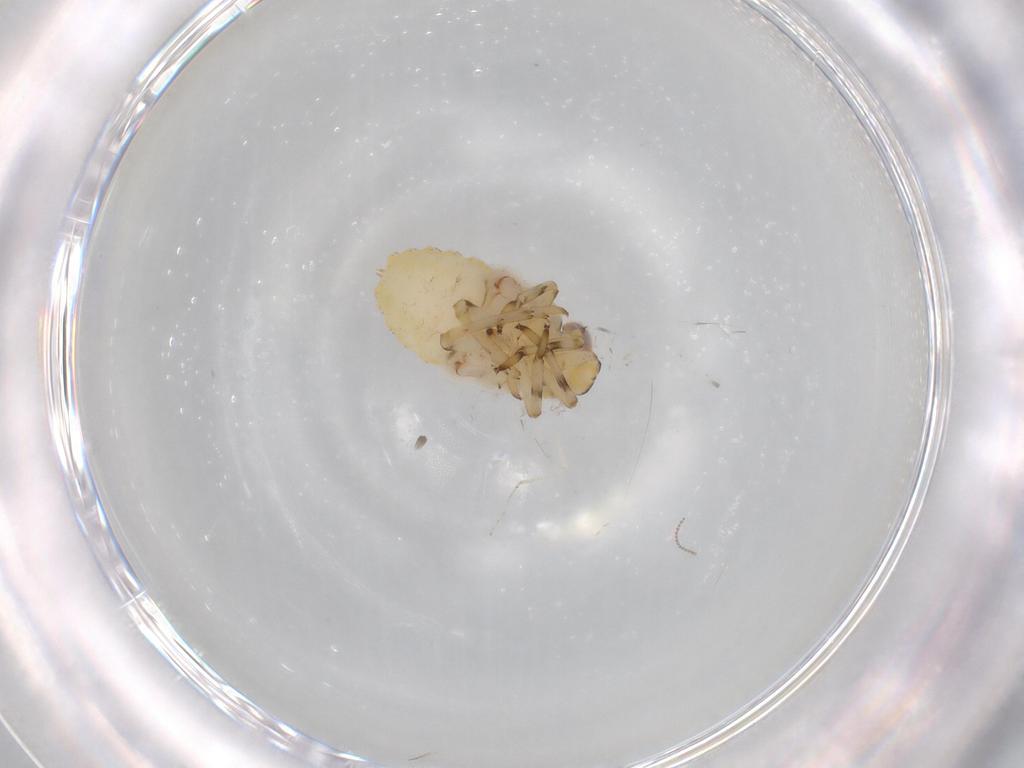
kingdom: Animalia
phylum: Arthropoda
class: Insecta
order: Hemiptera
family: Issidae
